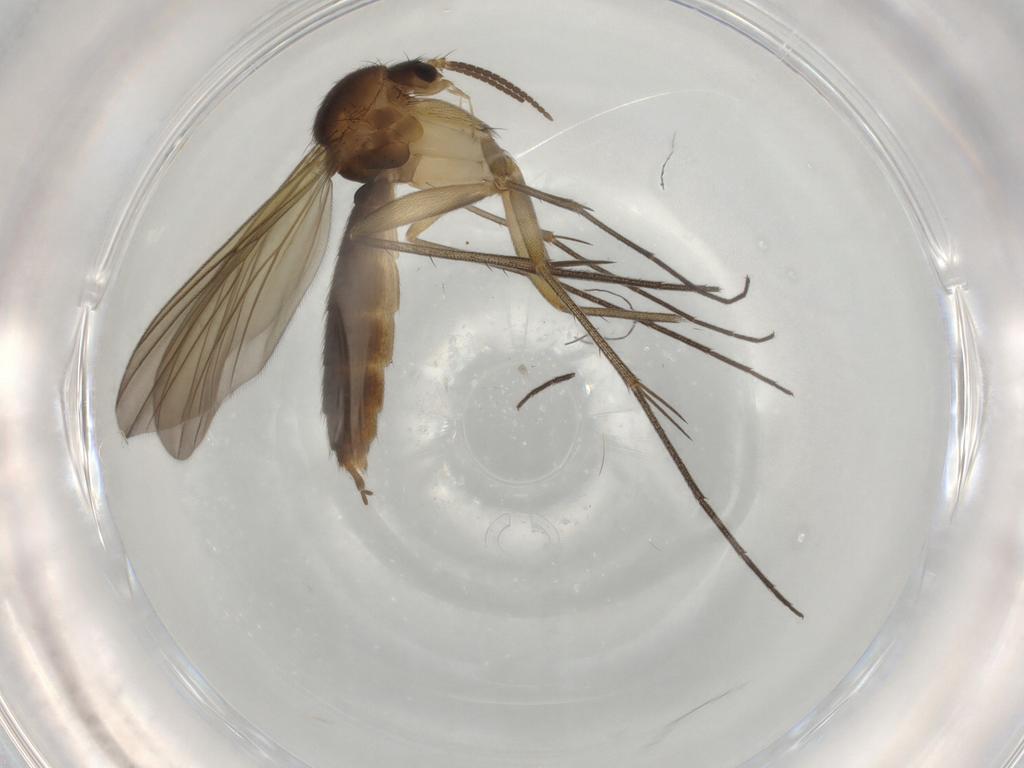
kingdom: Animalia
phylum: Arthropoda
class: Insecta
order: Diptera
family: Mycetophilidae
